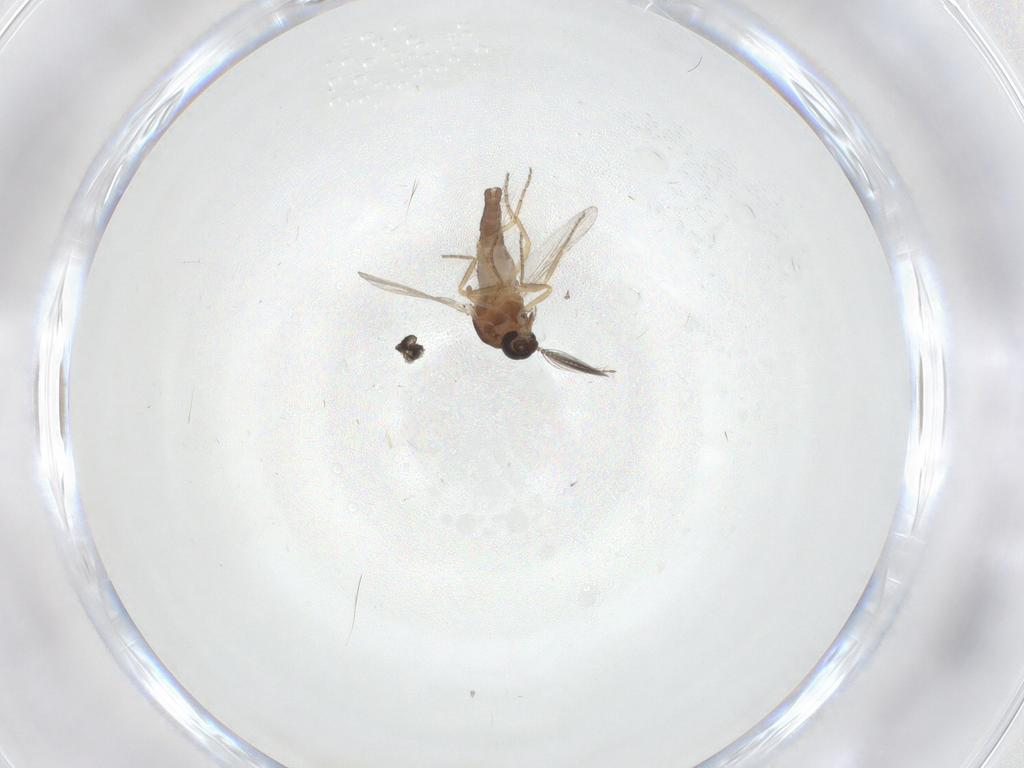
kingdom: Animalia
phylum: Arthropoda
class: Insecta
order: Diptera
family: Ceratopogonidae
